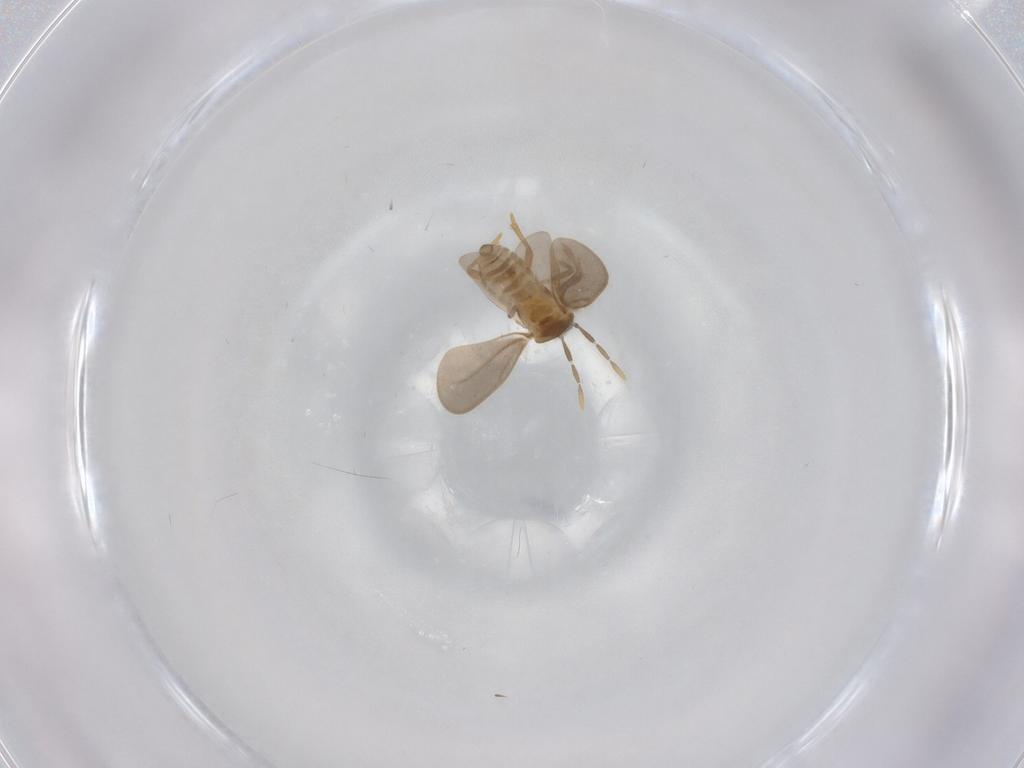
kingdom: Animalia
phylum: Arthropoda
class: Insecta
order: Hemiptera
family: Enicocephalidae
